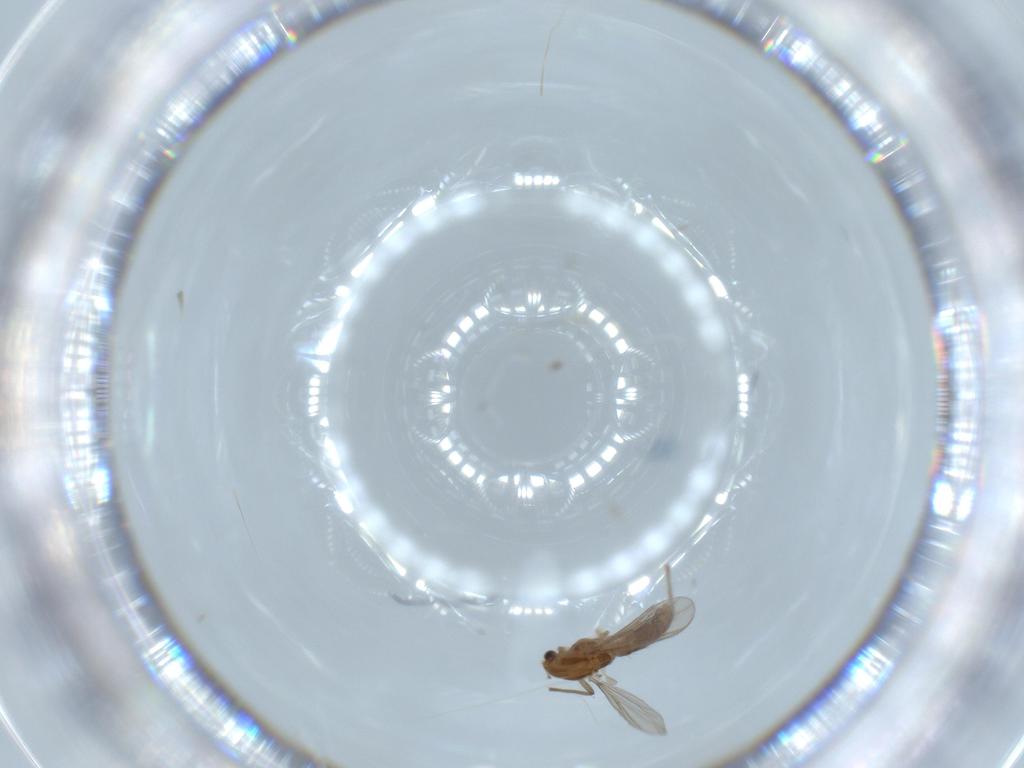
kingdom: Animalia
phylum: Arthropoda
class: Insecta
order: Diptera
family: Chironomidae
